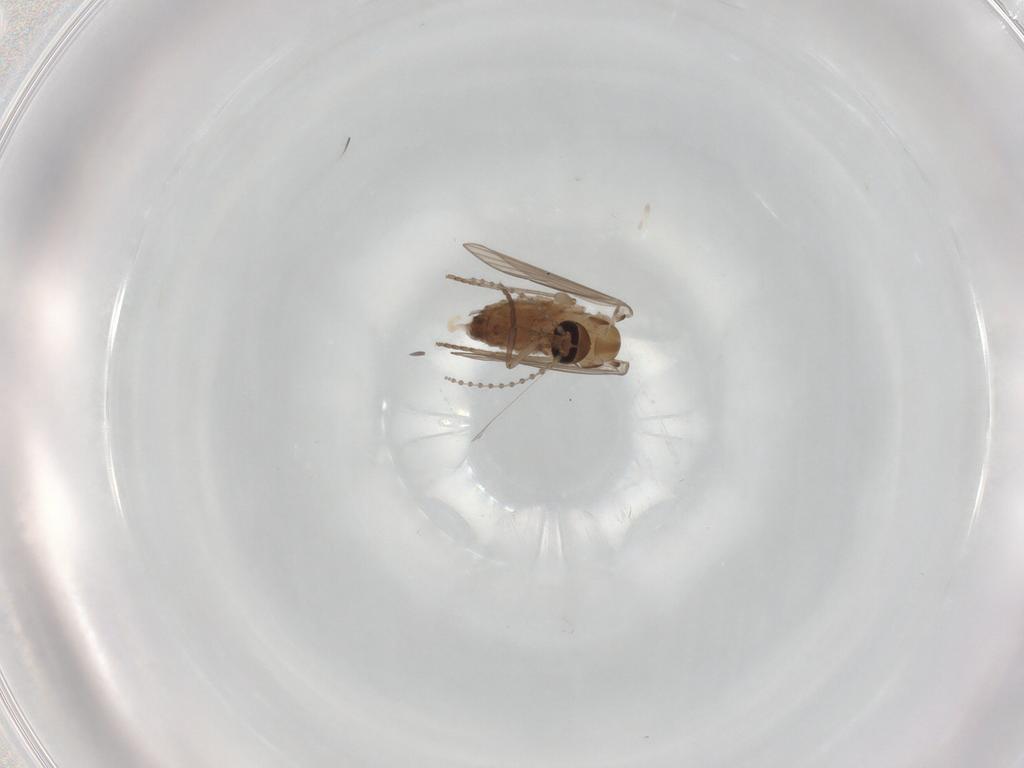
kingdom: Animalia
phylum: Arthropoda
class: Insecta
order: Diptera
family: Psychodidae
